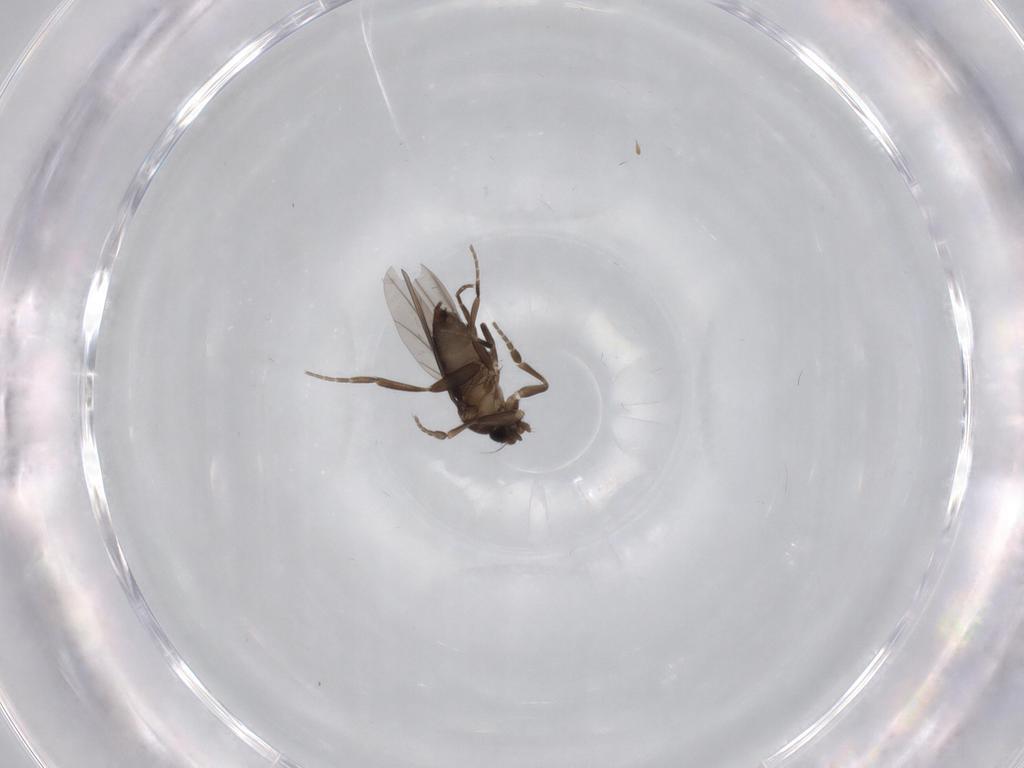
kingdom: Animalia
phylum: Arthropoda
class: Insecta
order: Diptera
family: Phoridae
